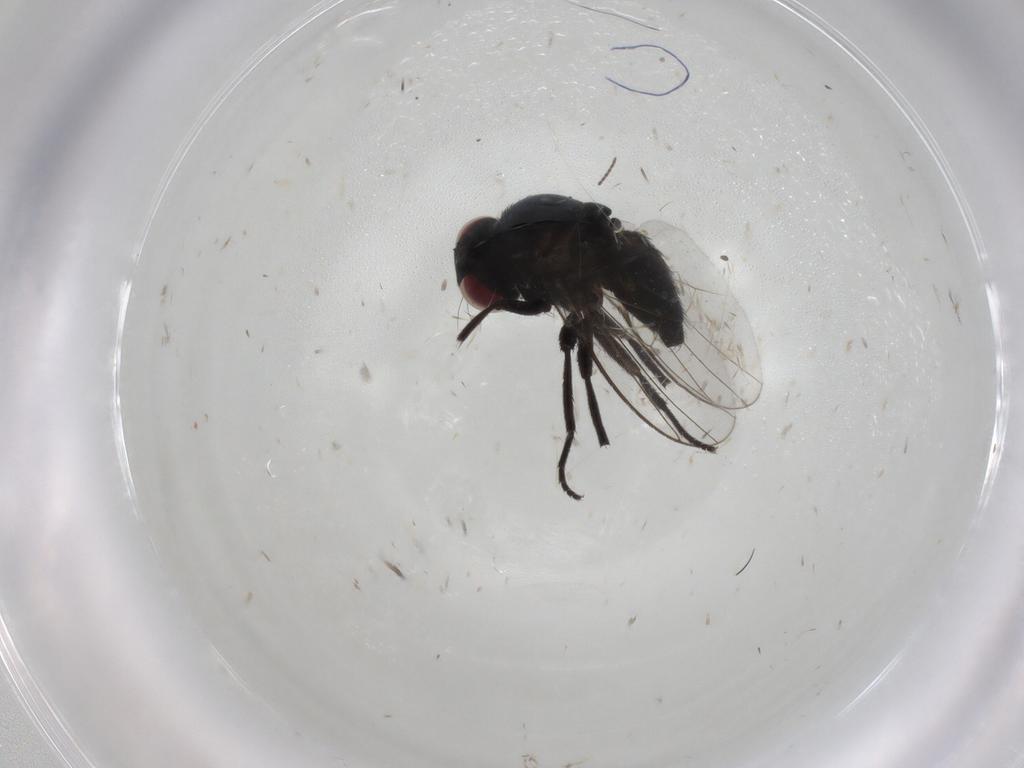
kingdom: Animalia
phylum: Arthropoda
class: Insecta
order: Diptera
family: Agromyzidae
